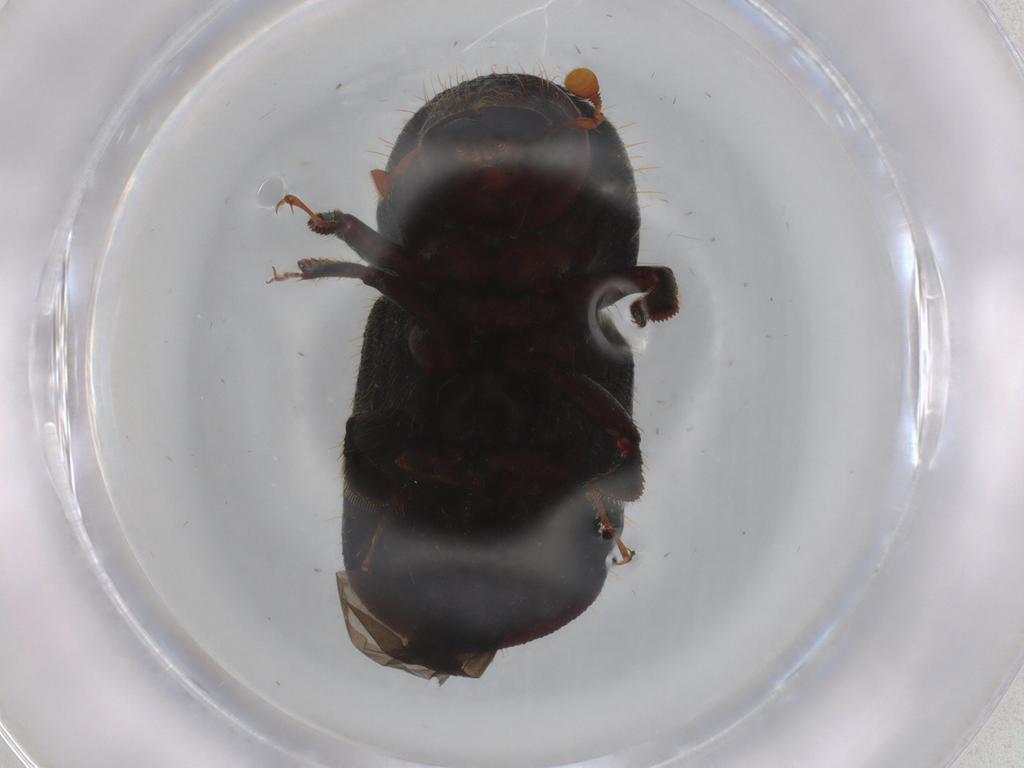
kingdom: Animalia
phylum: Arthropoda
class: Insecta
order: Coleoptera
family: Curculionidae
